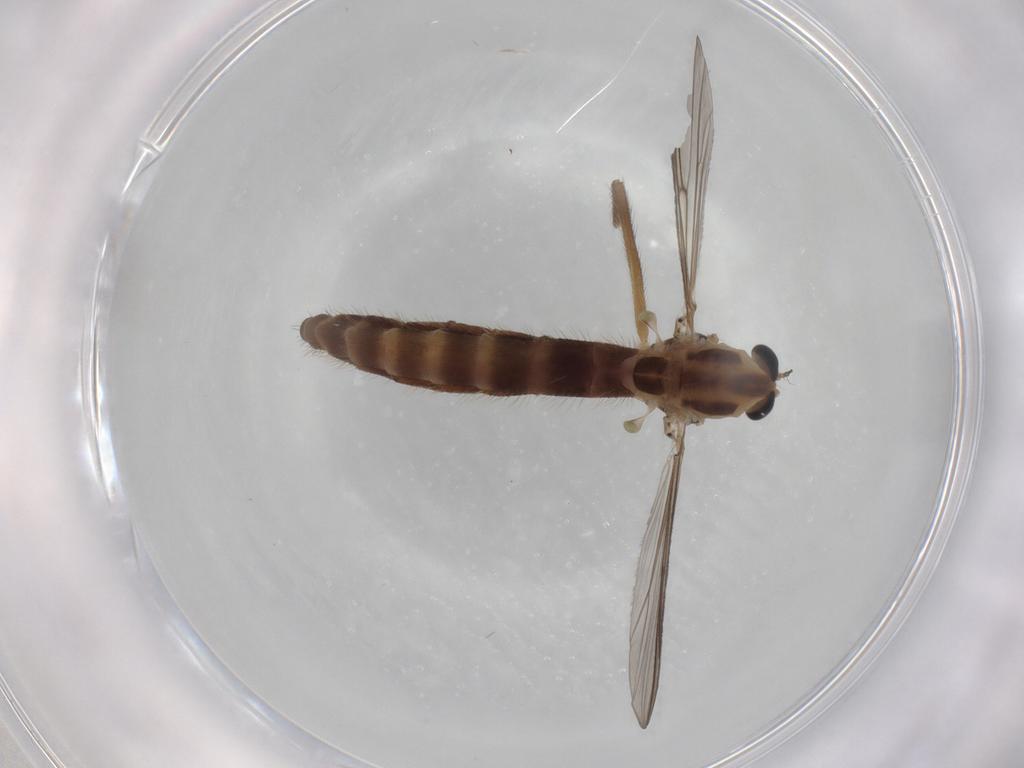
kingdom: Animalia
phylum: Arthropoda
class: Insecta
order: Diptera
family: Chironomidae
